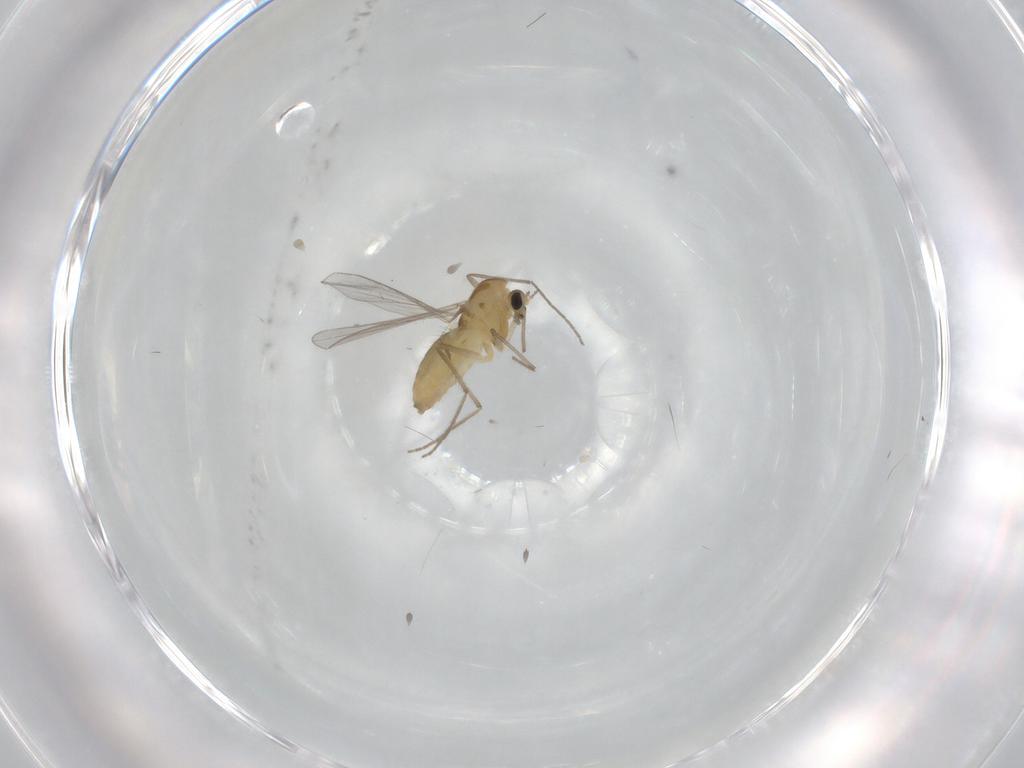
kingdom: Animalia
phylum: Arthropoda
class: Insecta
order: Diptera
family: Chironomidae
